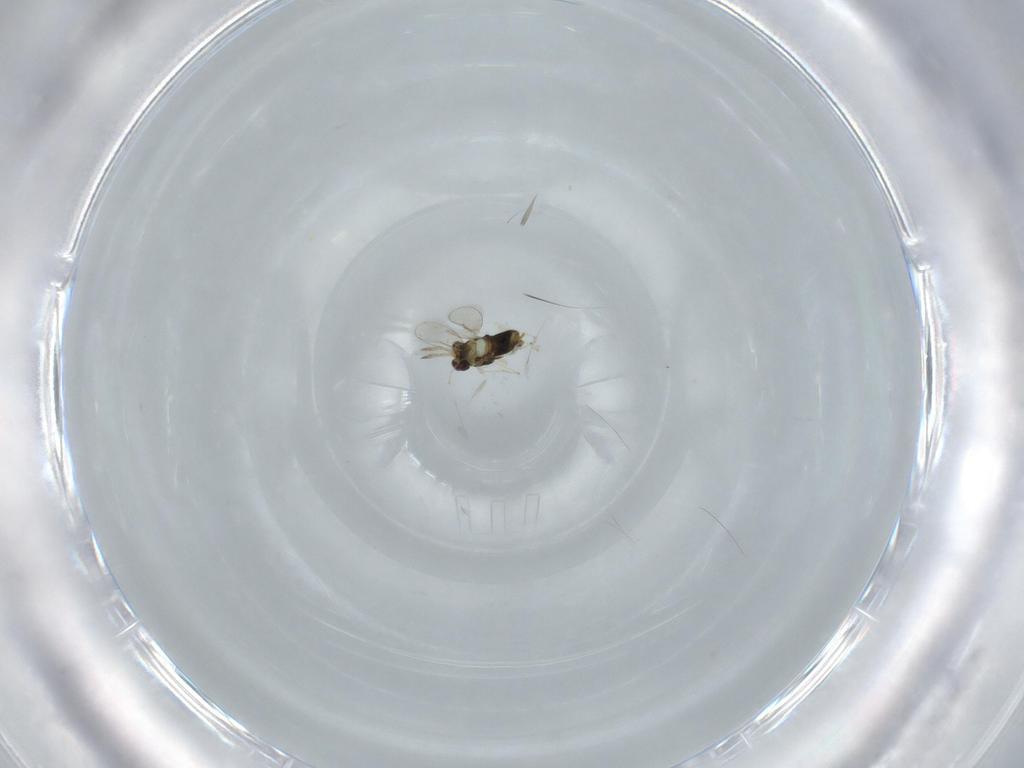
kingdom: Animalia
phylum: Arthropoda
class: Insecta
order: Hymenoptera
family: Aphelinidae
